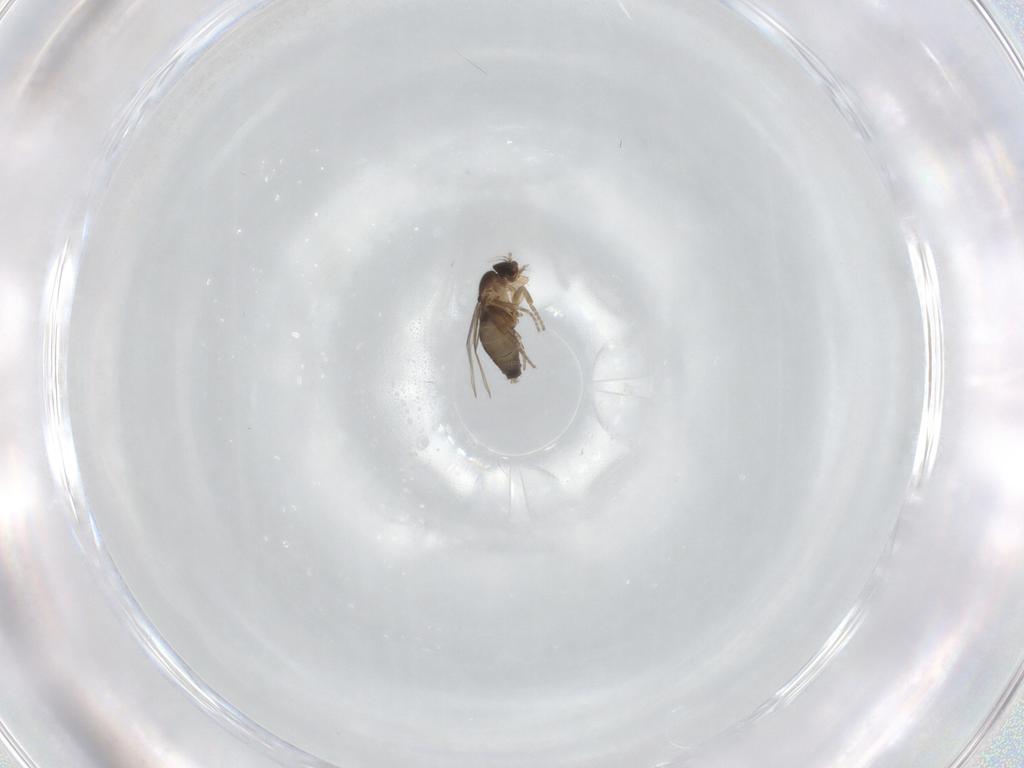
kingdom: Animalia
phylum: Arthropoda
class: Insecta
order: Diptera
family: Phoridae
